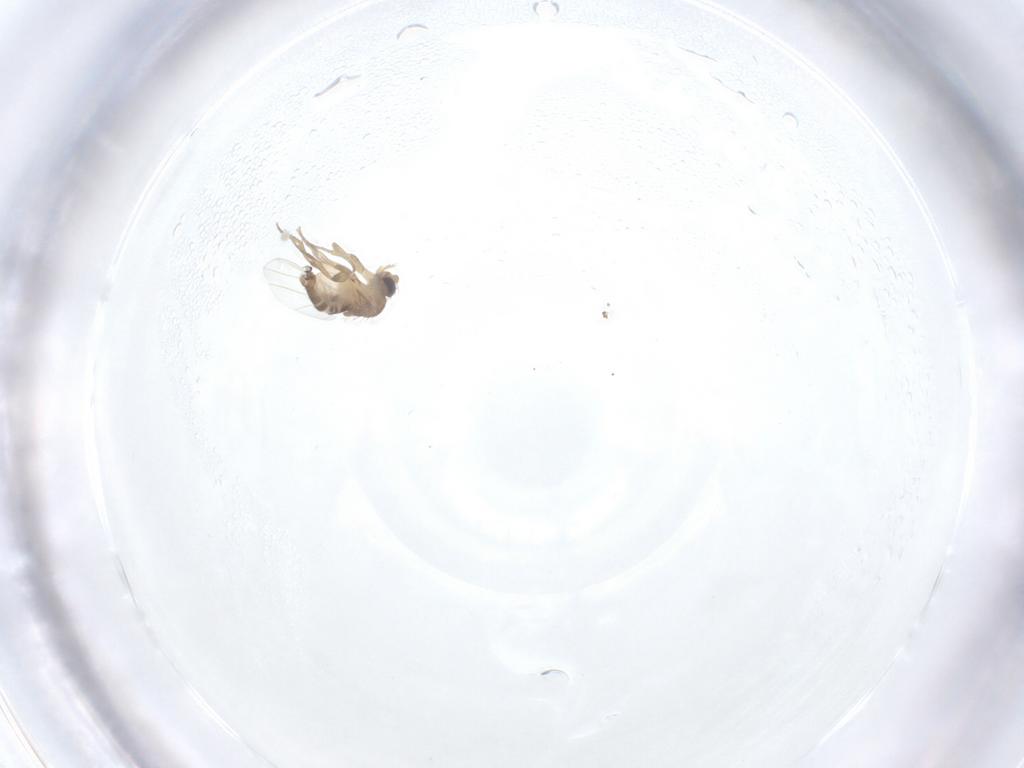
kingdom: Animalia
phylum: Arthropoda
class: Insecta
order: Diptera
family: Phoridae
